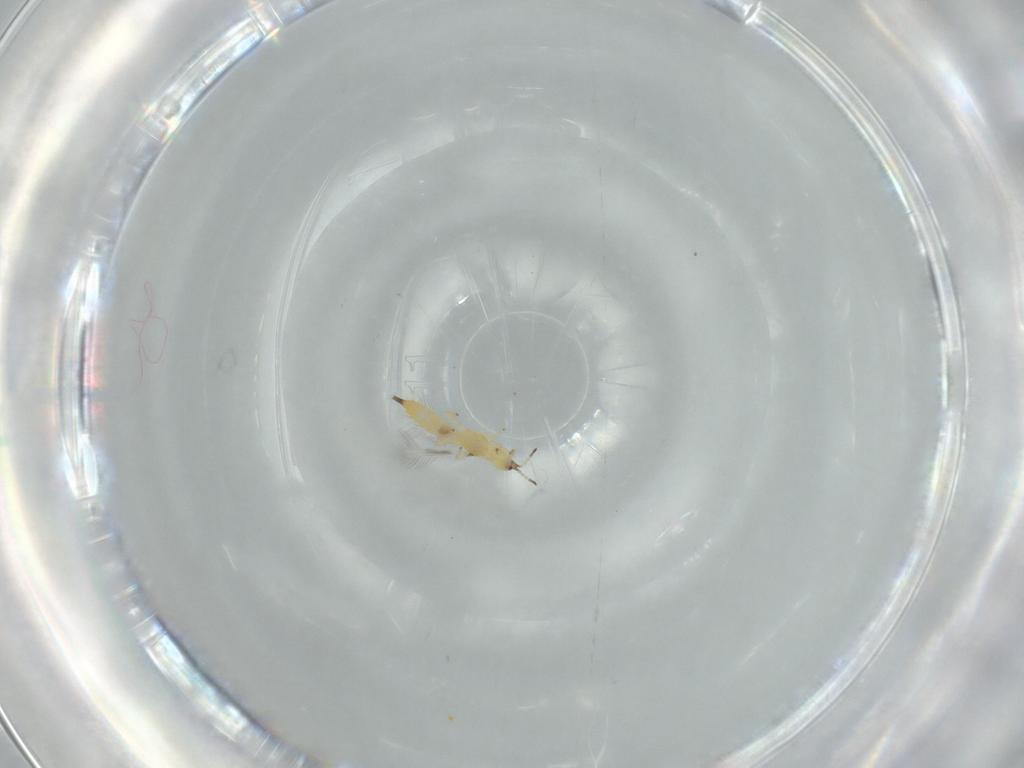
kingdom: Animalia
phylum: Arthropoda
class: Insecta
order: Thysanoptera
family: Phlaeothripidae
